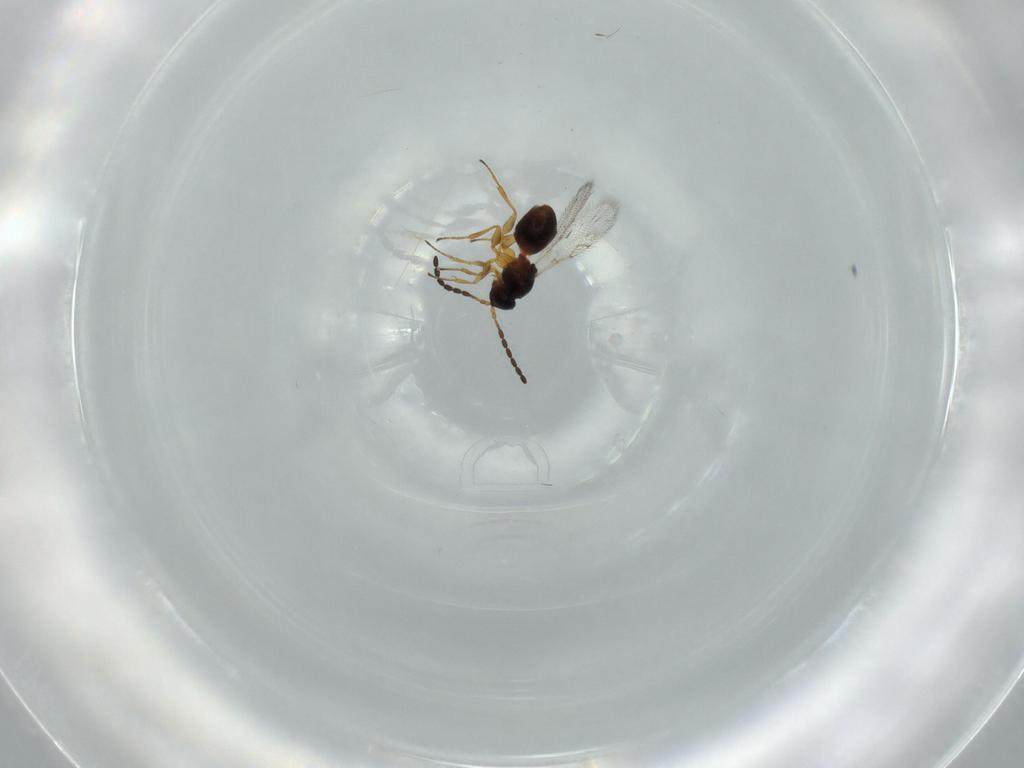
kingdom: Animalia
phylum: Arthropoda
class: Insecta
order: Hymenoptera
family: Figitidae
